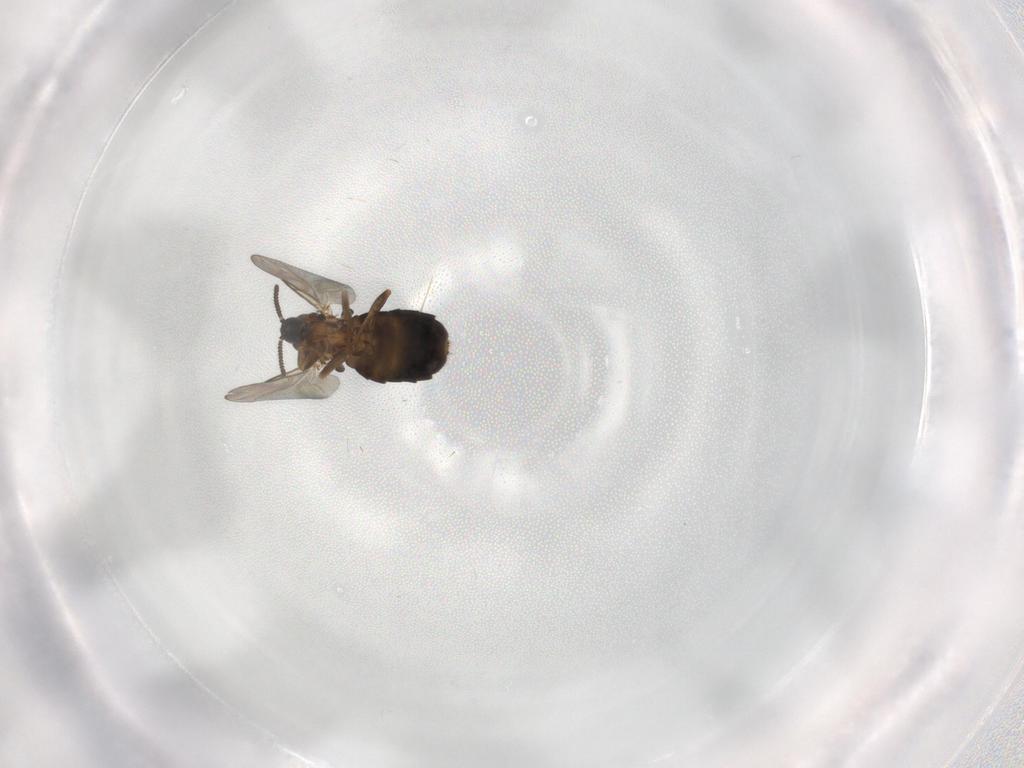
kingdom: Animalia
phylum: Arthropoda
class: Insecta
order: Diptera
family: Scatopsidae
